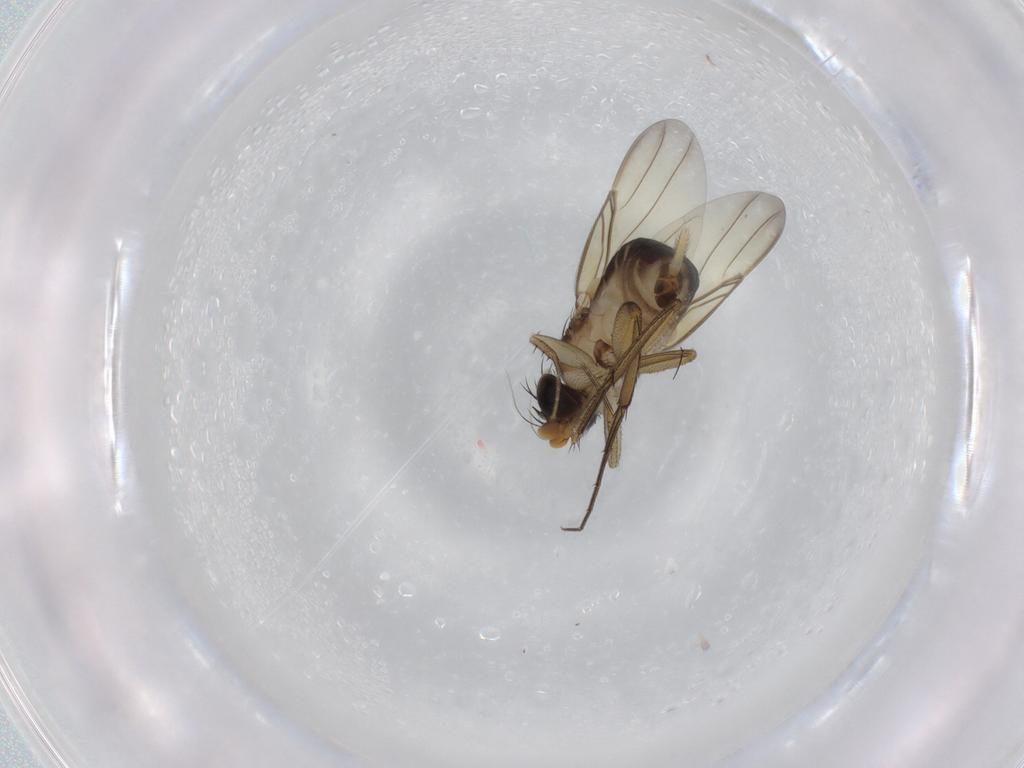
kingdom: Animalia
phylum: Arthropoda
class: Insecta
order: Diptera
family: Phoridae
